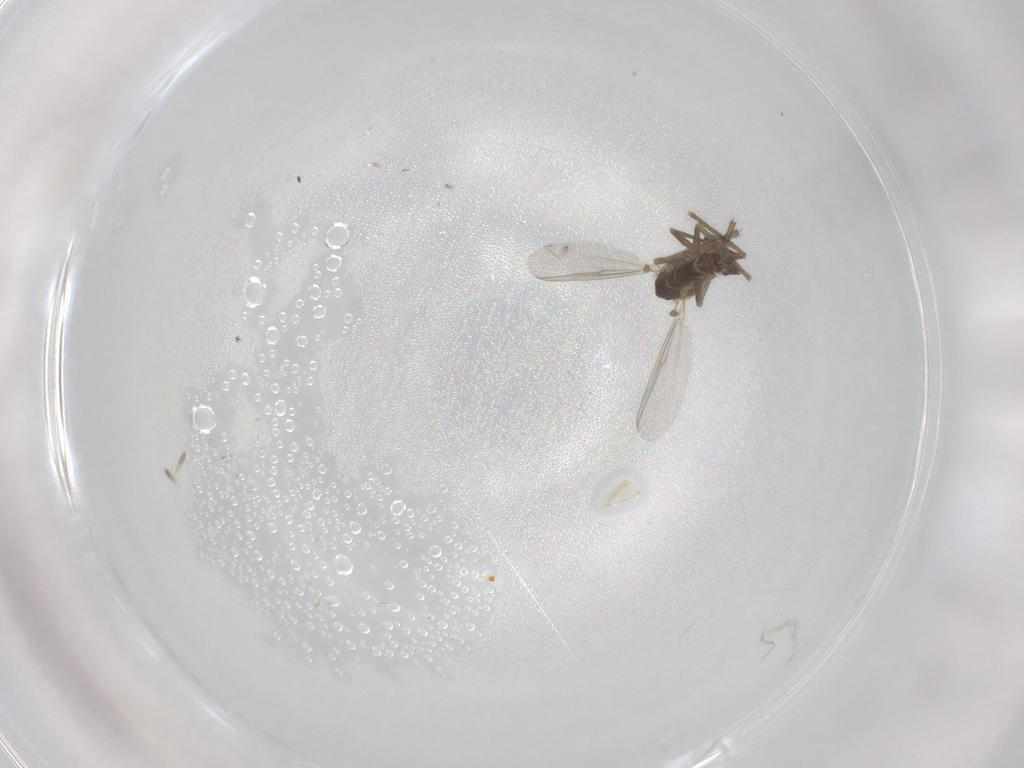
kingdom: Animalia
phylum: Arthropoda
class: Insecta
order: Diptera
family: Chironomidae
